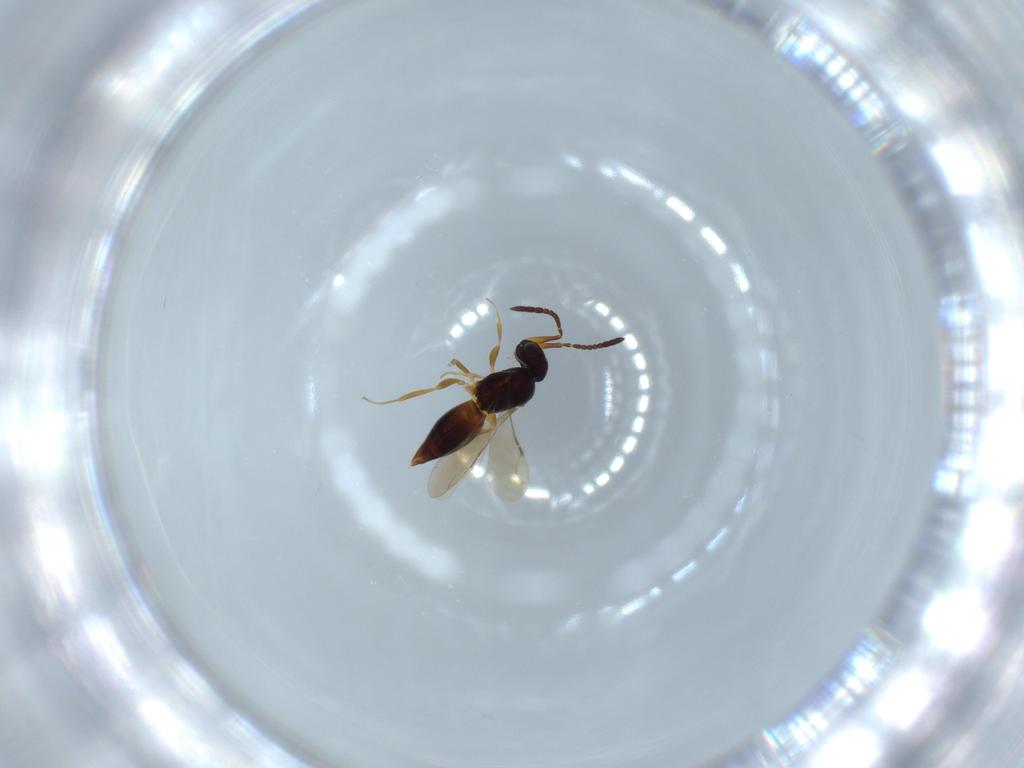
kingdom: Animalia
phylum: Arthropoda
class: Insecta
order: Hymenoptera
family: Ceraphronidae
